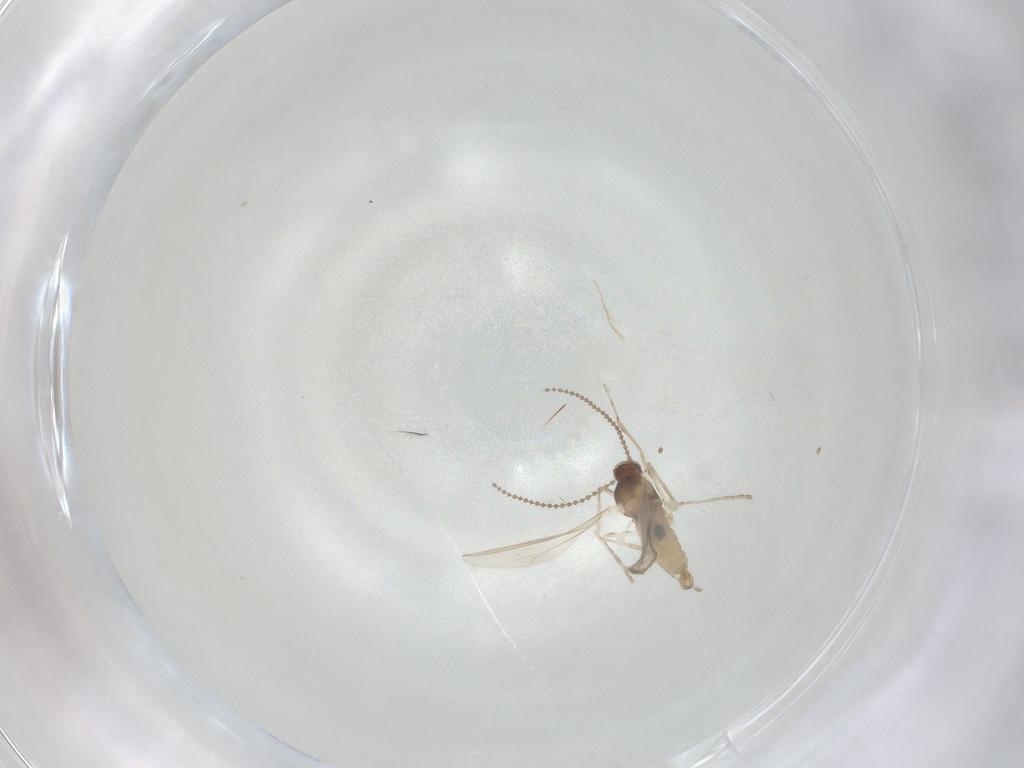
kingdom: Animalia
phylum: Arthropoda
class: Insecta
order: Diptera
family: Cecidomyiidae
